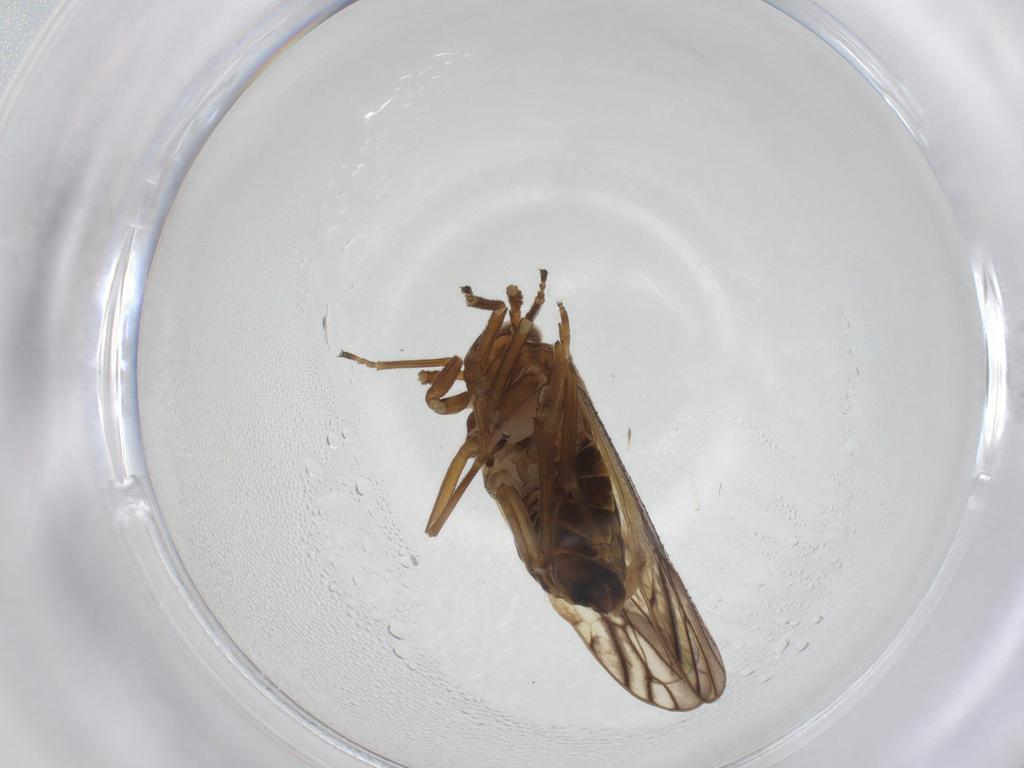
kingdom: Animalia
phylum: Arthropoda
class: Insecta
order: Hemiptera
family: Delphacidae
